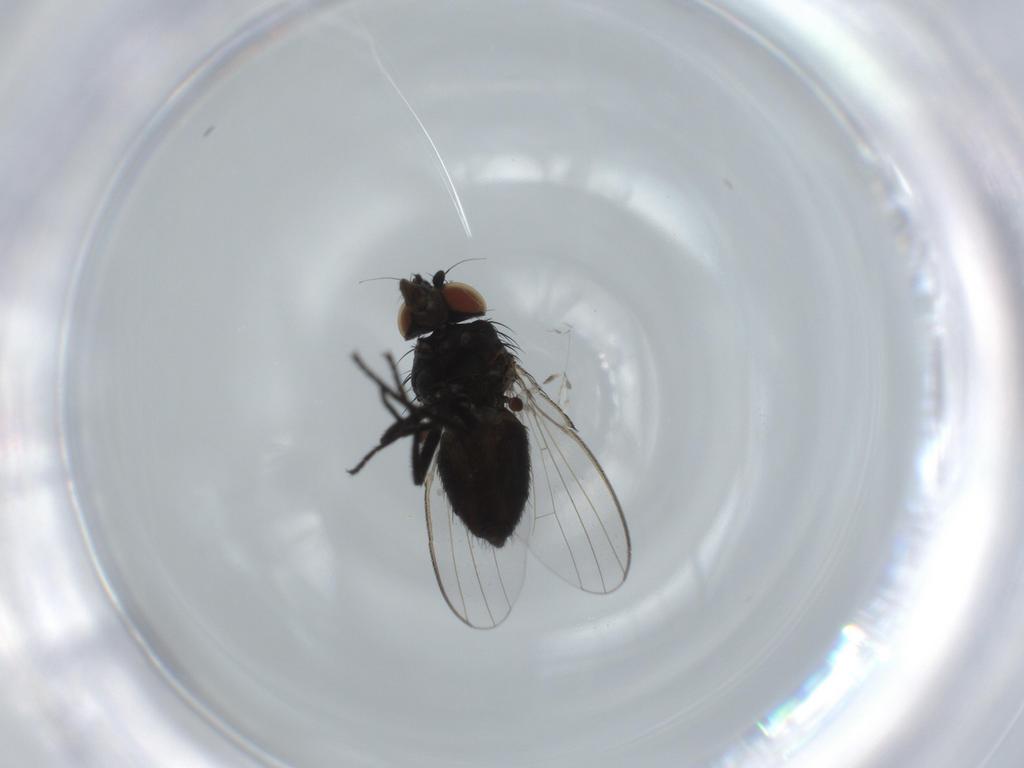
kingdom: Animalia
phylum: Arthropoda
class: Insecta
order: Diptera
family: Milichiidae
